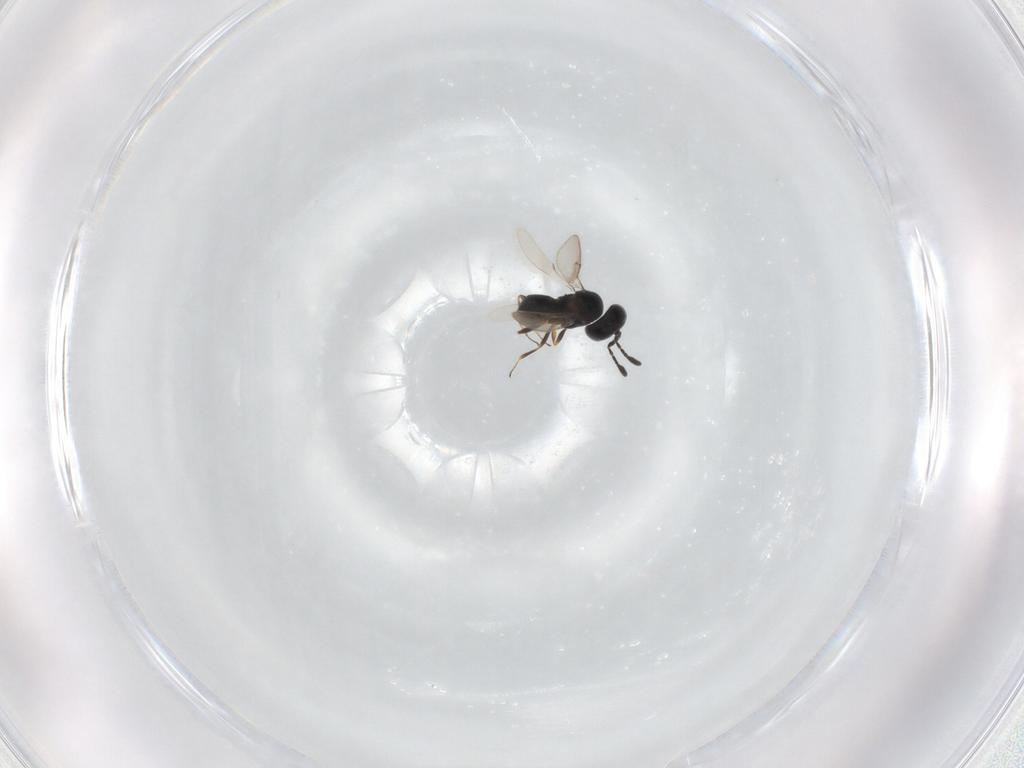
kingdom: Animalia
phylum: Arthropoda
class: Insecta
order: Hymenoptera
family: Scelionidae
